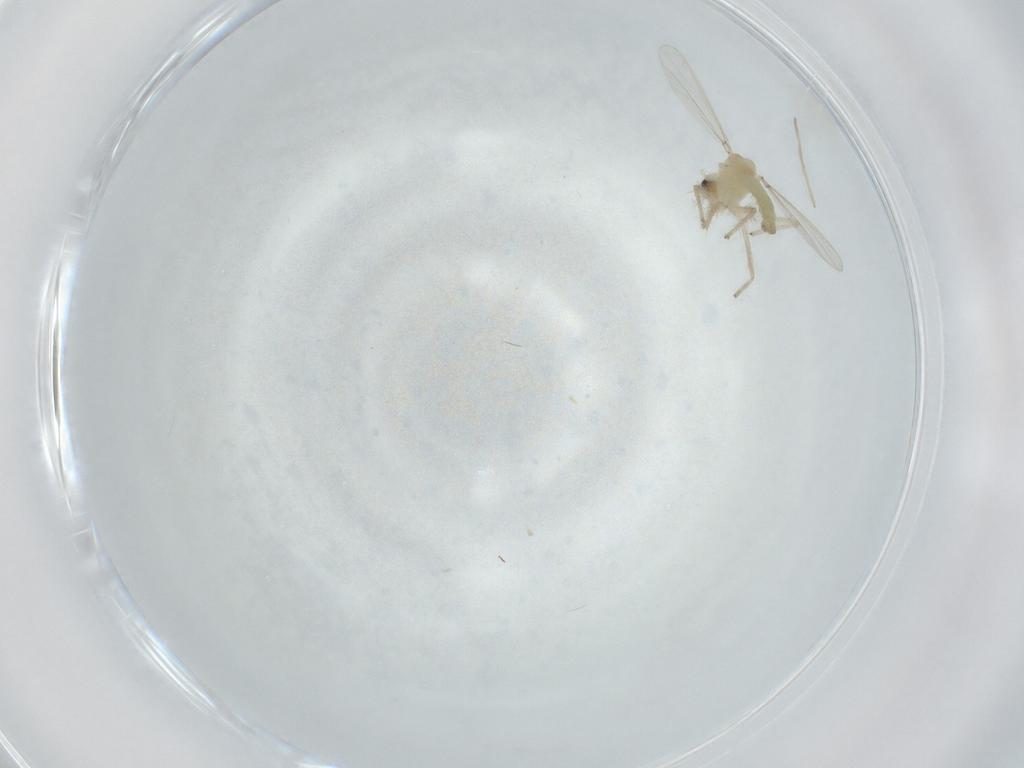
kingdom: Animalia
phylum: Arthropoda
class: Insecta
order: Diptera
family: Chironomidae
